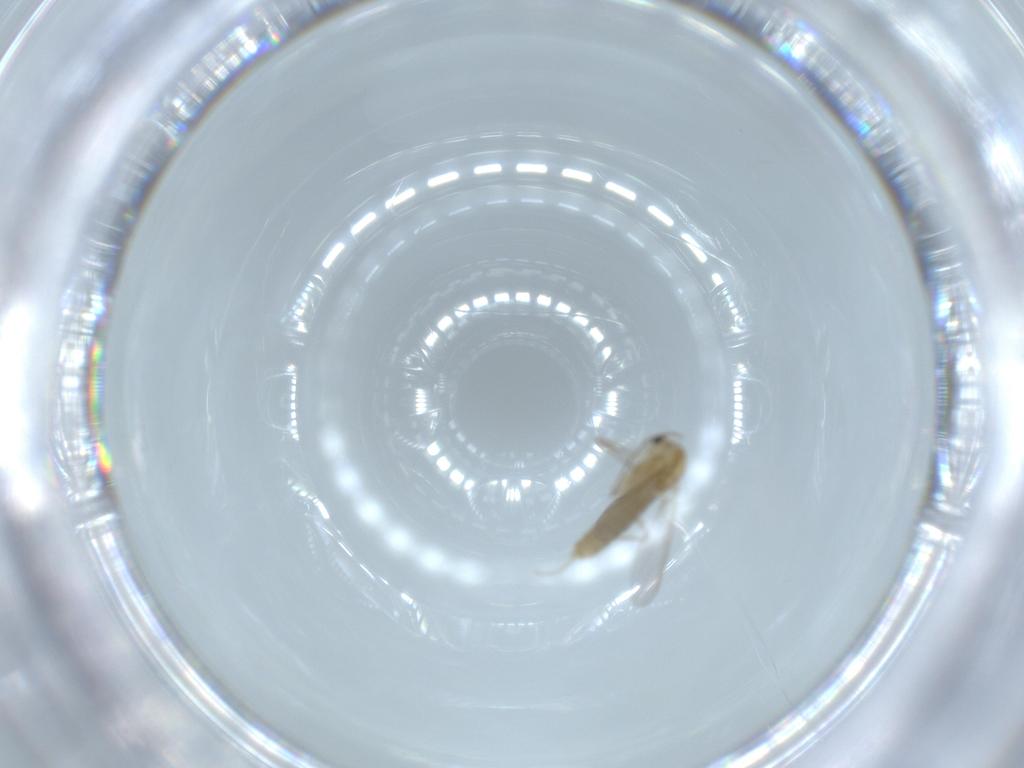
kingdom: Animalia
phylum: Arthropoda
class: Insecta
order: Diptera
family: Chironomidae
